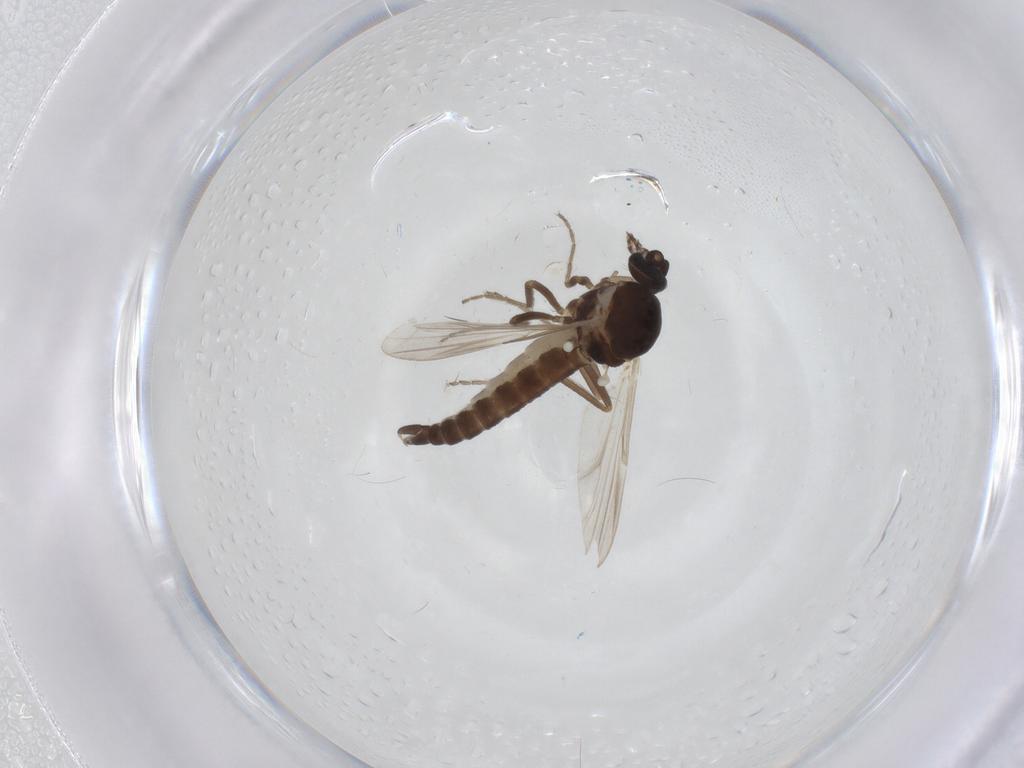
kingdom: Animalia
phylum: Arthropoda
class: Insecta
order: Diptera
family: Ceratopogonidae
